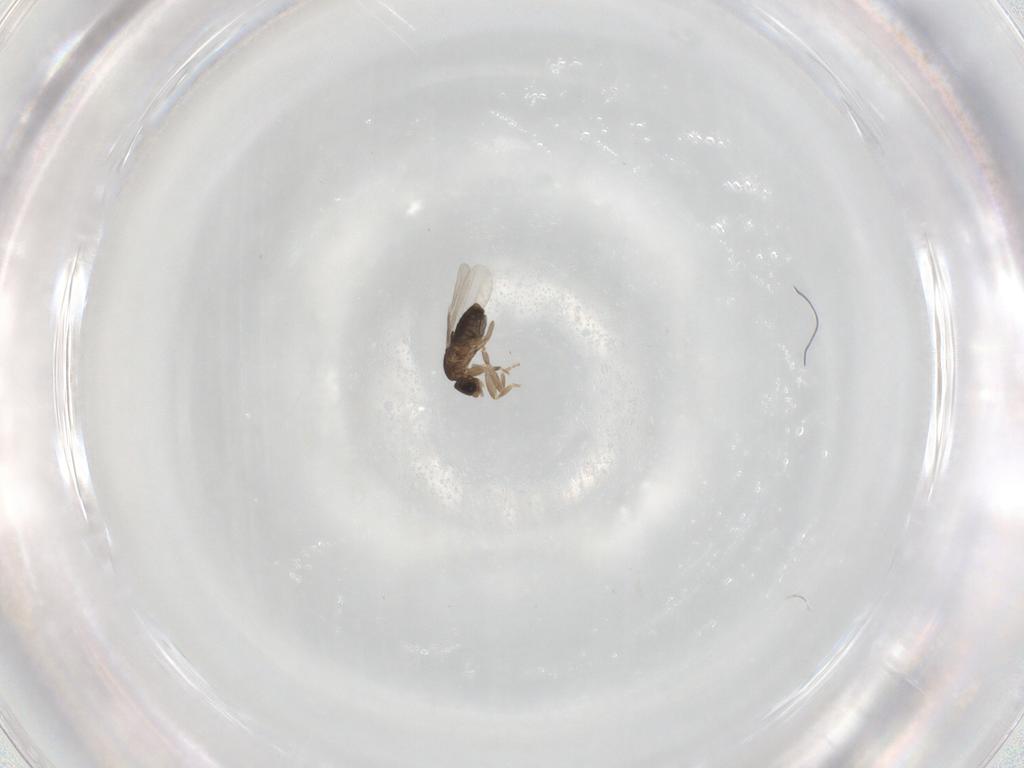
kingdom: Animalia
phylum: Arthropoda
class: Insecta
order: Diptera
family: Phoridae
